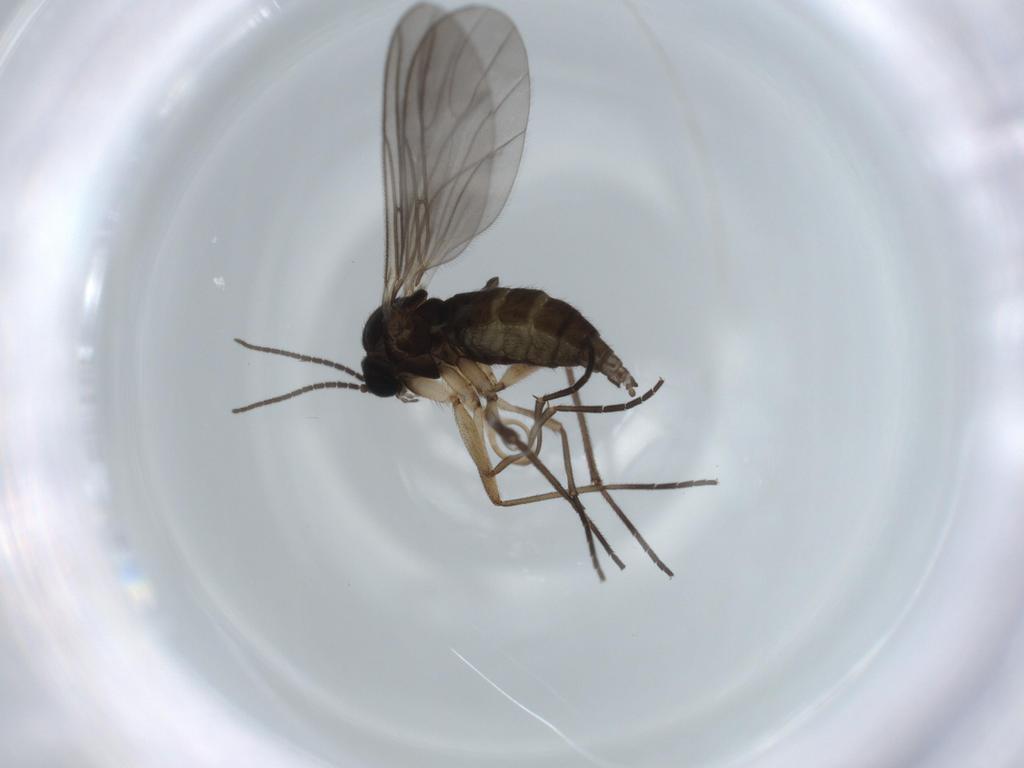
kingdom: Animalia
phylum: Arthropoda
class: Insecta
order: Diptera
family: Sciaridae
